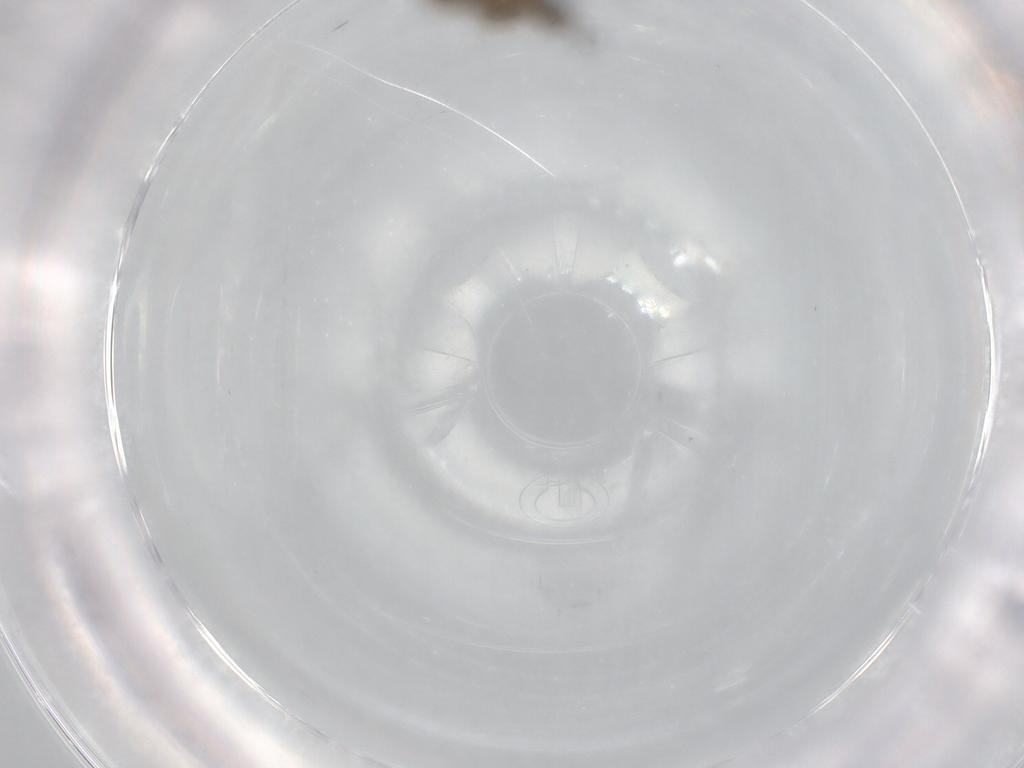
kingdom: Animalia
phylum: Arthropoda
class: Insecta
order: Diptera
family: Cecidomyiidae
